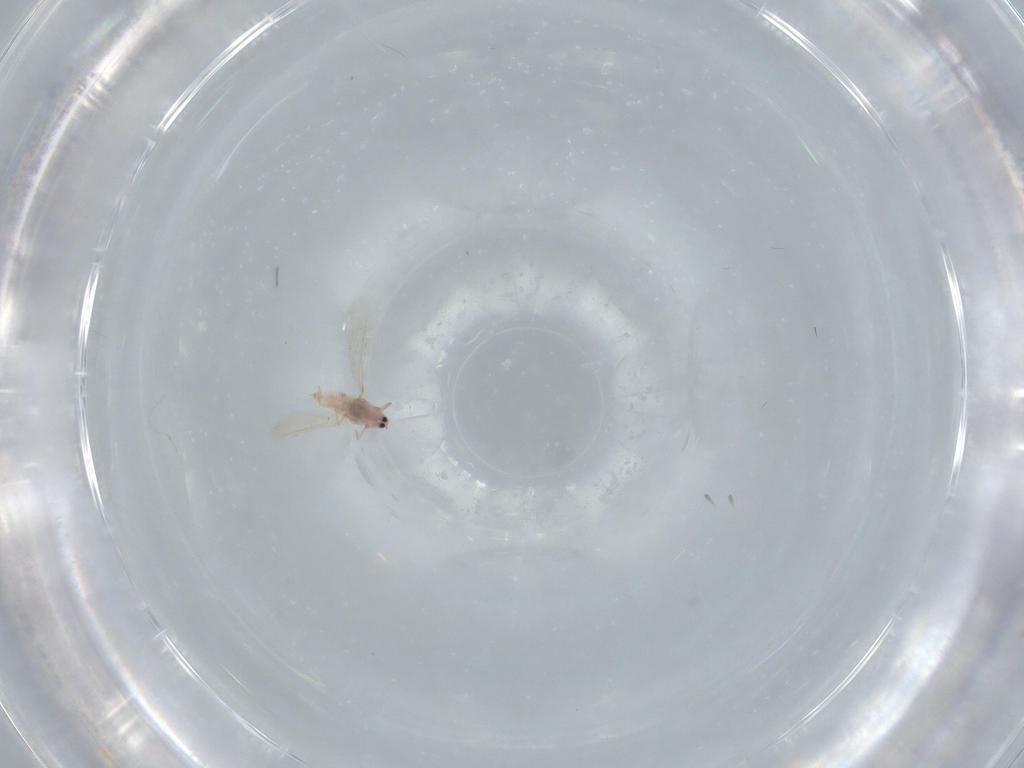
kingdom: Animalia
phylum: Arthropoda
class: Insecta
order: Hemiptera
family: Diaspididae
